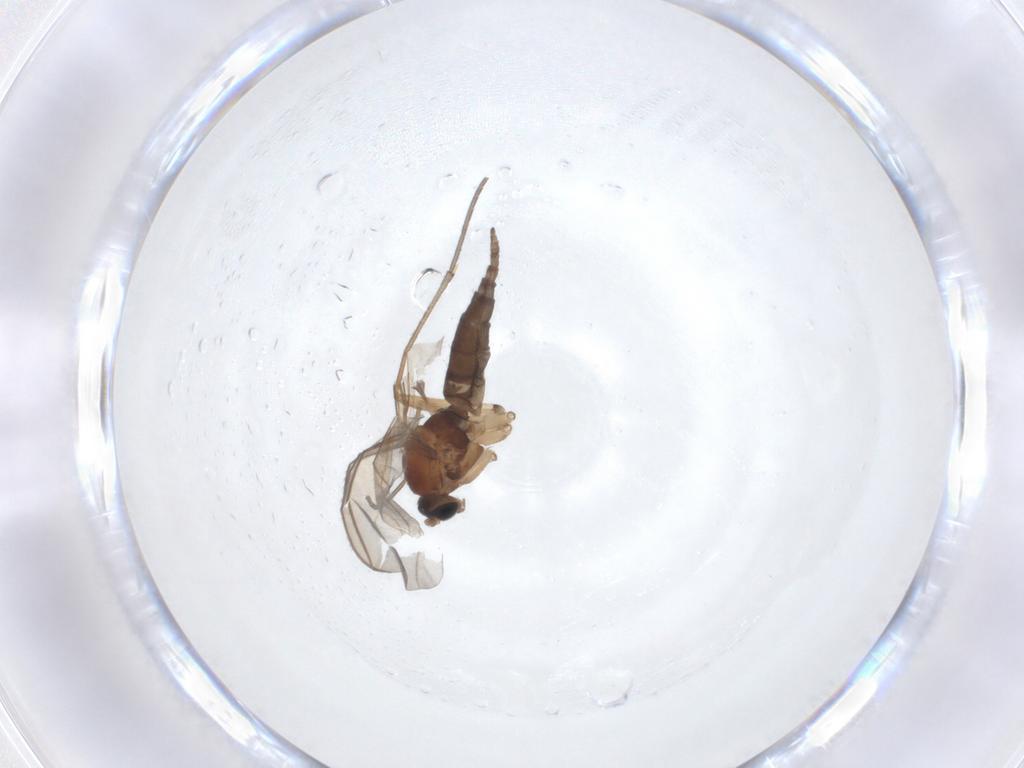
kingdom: Animalia
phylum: Arthropoda
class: Insecta
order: Diptera
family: Sciaridae
